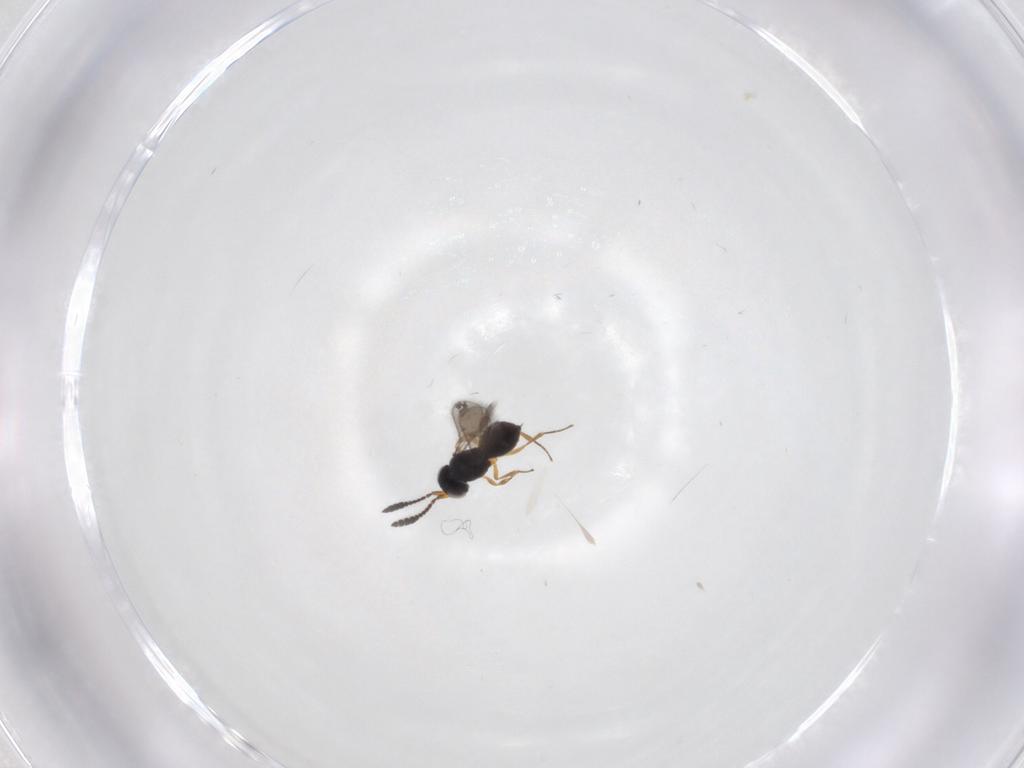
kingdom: Animalia
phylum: Arthropoda
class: Insecta
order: Hymenoptera
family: Scelionidae
